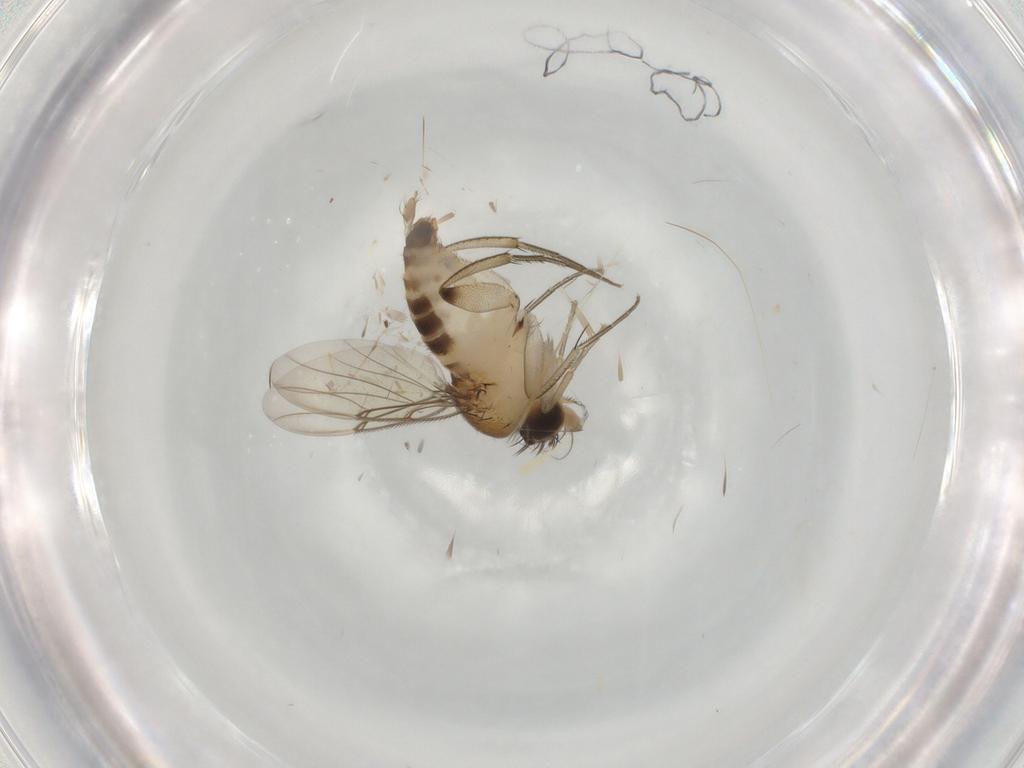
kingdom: Animalia
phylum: Arthropoda
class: Insecta
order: Diptera
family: Phoridae
